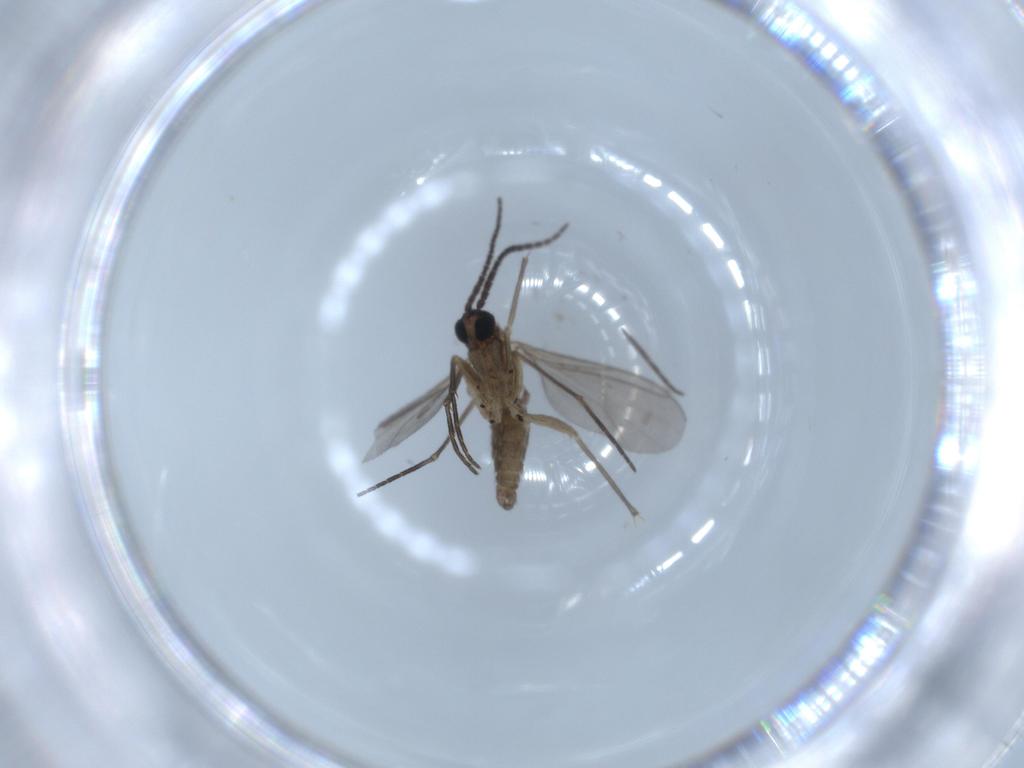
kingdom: Animalia
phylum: Arthropoda
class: Insecta
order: Diptera
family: Sciaridae
